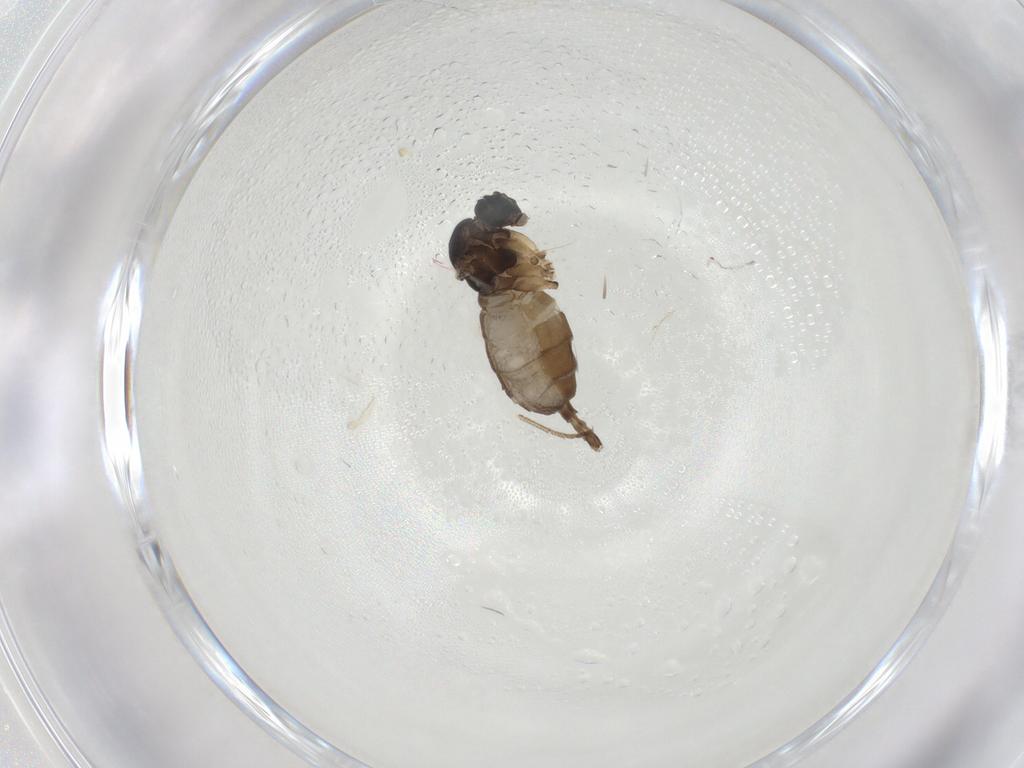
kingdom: Animalia
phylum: Arthropoda
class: Insecta
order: Diptera
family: Sciaridae
